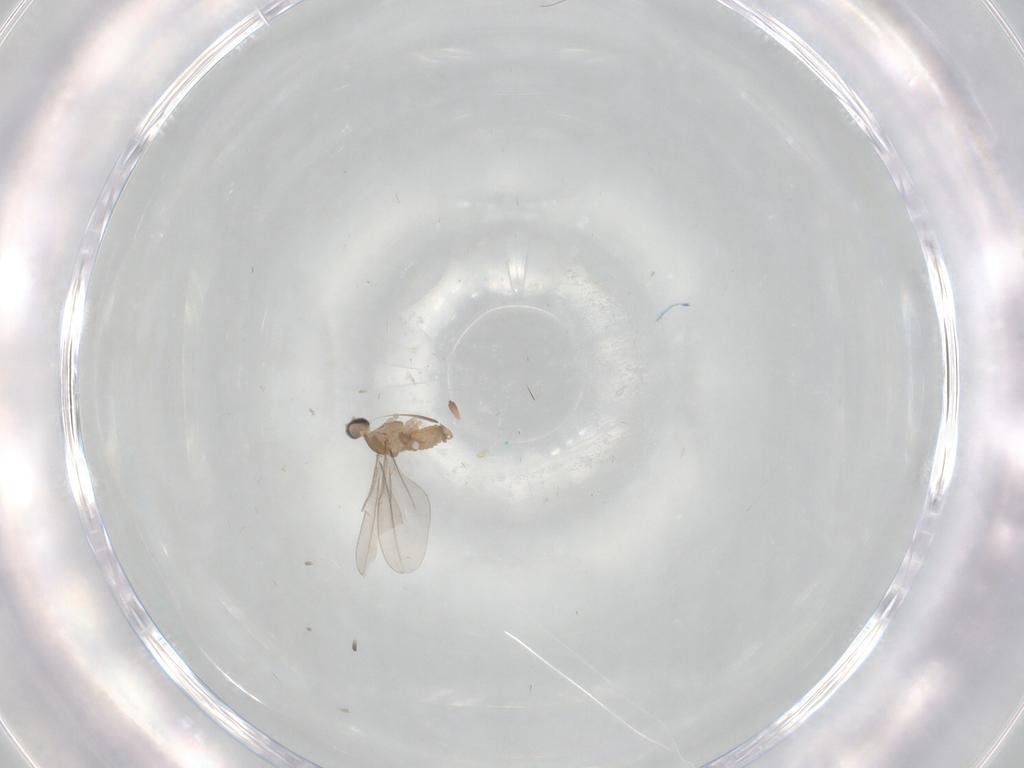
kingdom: Animalia
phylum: Arthropoda
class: Insecta
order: Diptera
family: Cecidomyiidae
